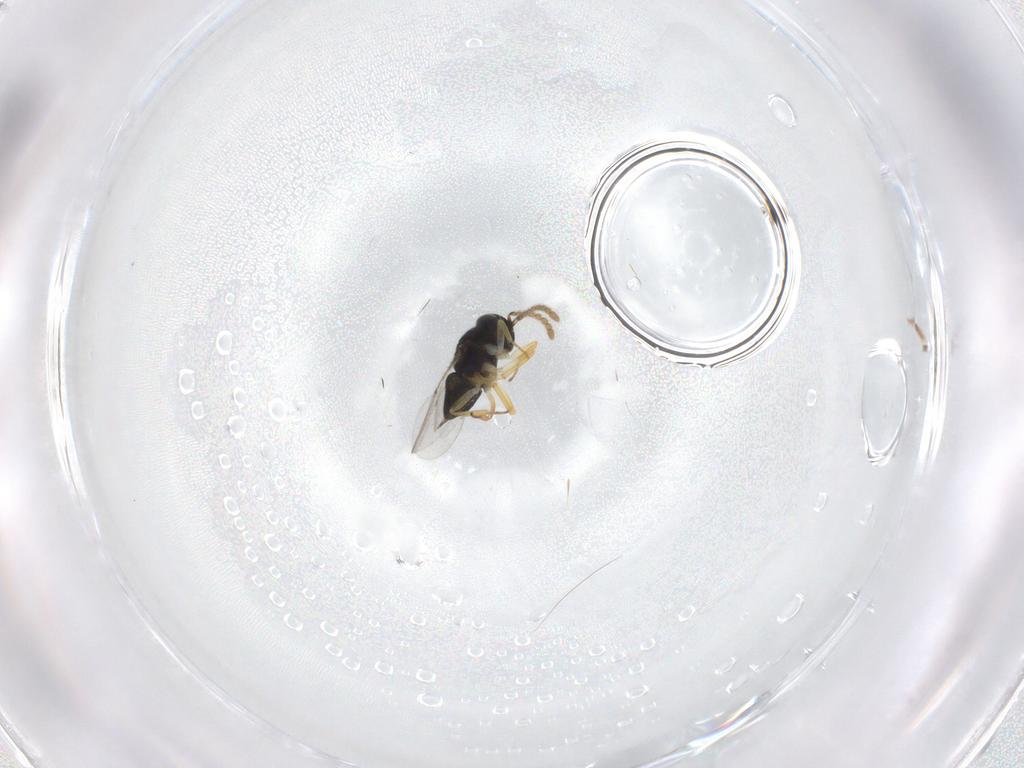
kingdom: Animalia
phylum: Arthropoda
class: Insecta
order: Hymenoptera
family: Encyrtidae
